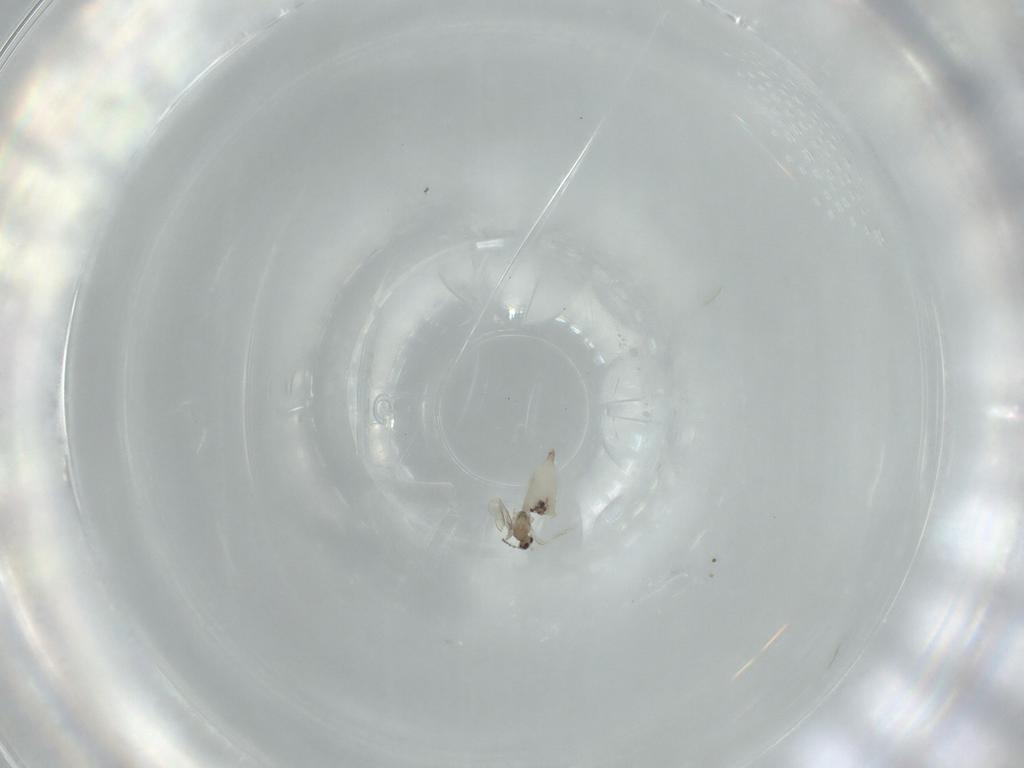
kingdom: Animalia
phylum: Arthropoda
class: Insecta
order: Diptera
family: Cecidomyiidae
